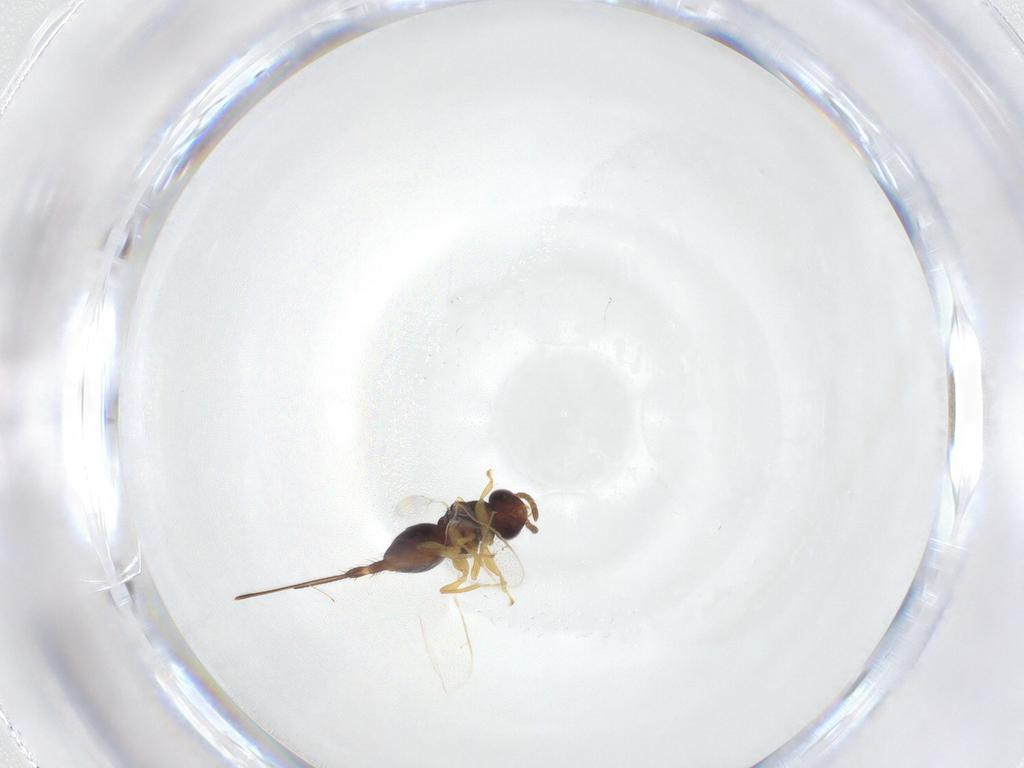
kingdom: Animalia
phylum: Arthropoda
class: Insecta
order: Hymenoptera
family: Agaonidae
